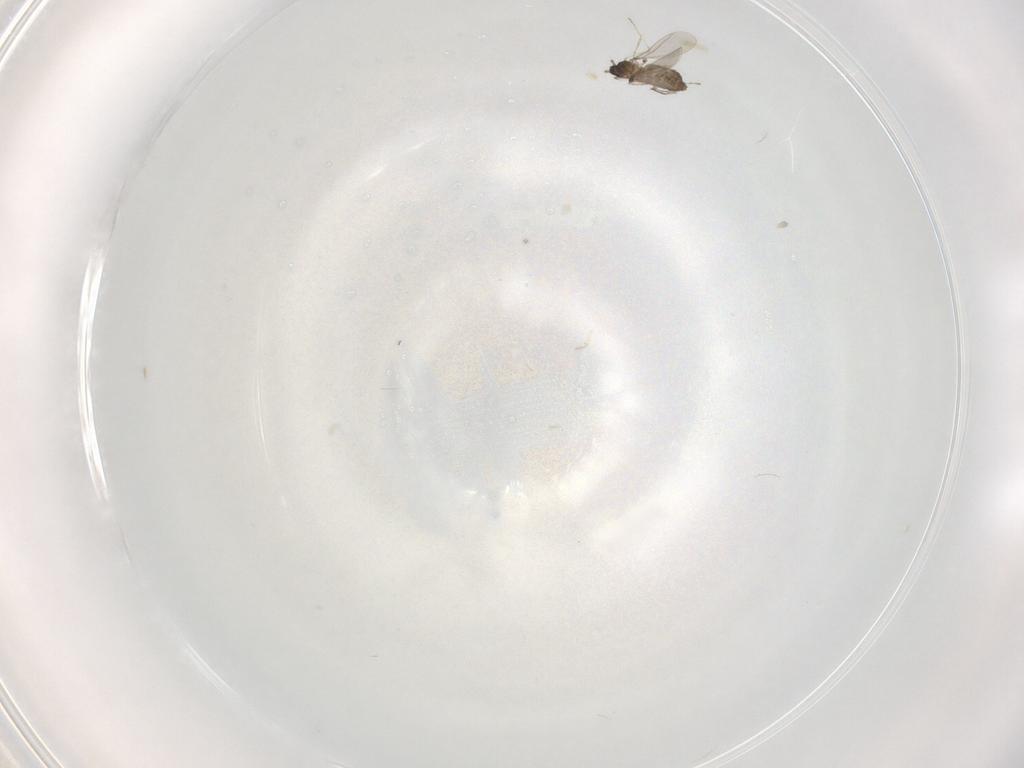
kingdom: Animalia
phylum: Arthropoda
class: Insecta
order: Diptera
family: Cecidomyiidae
